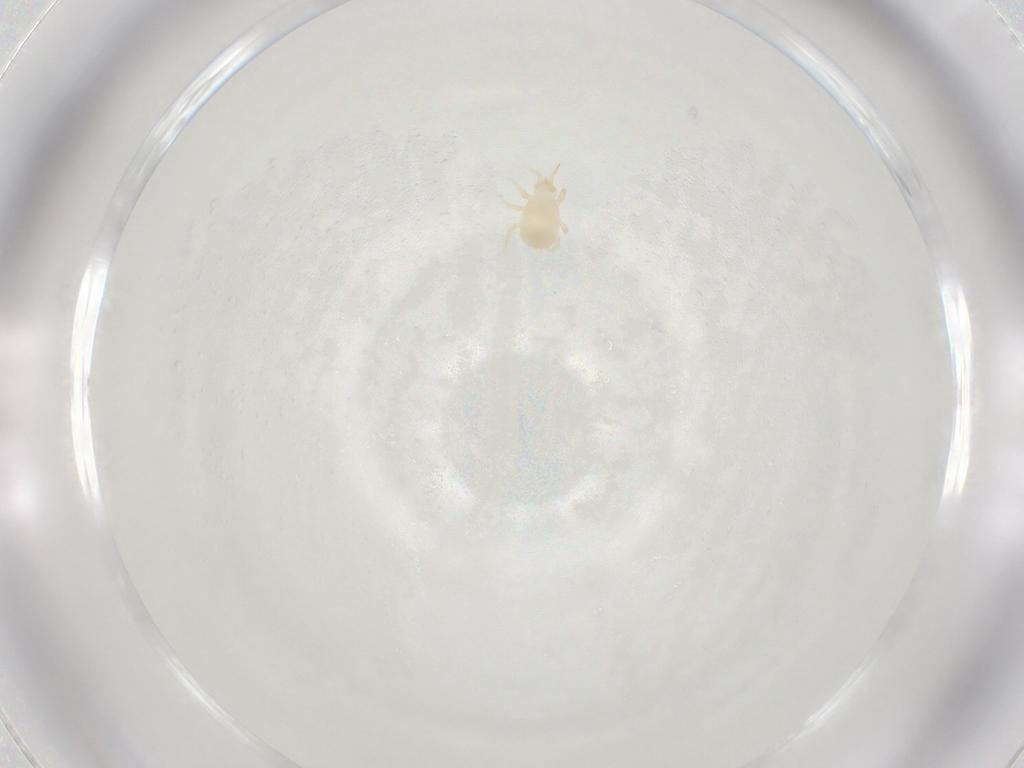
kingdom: Animalia
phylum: Arthropoda
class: Arachnida
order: Mesostigmata
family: Melicharidae
